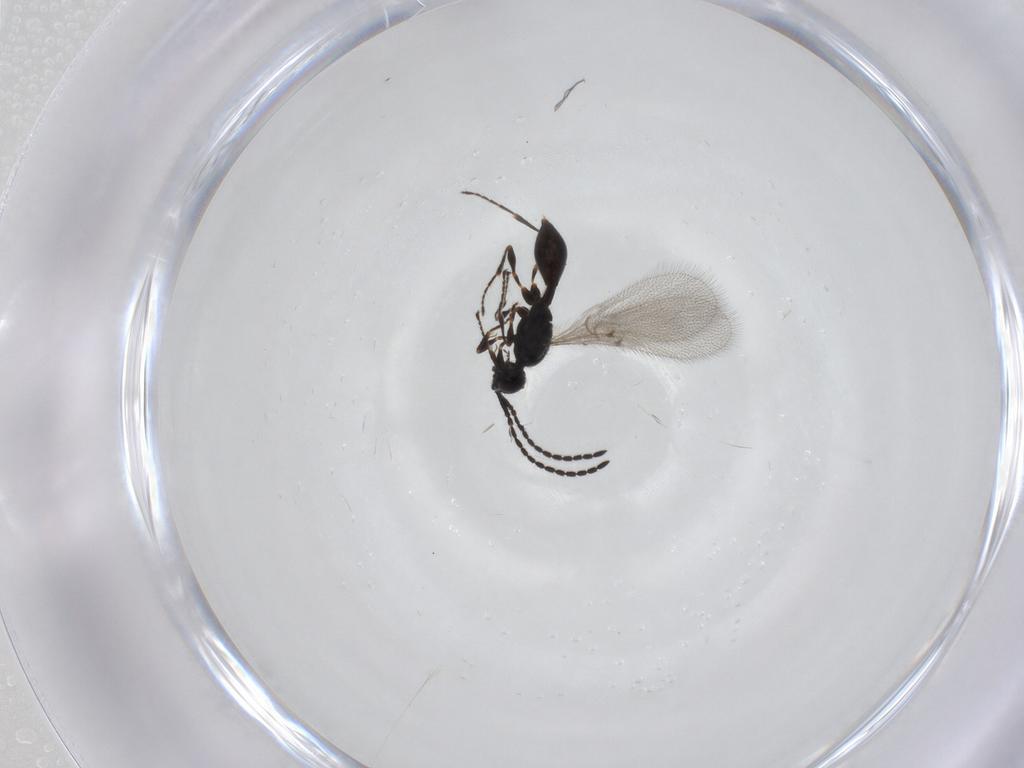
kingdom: Animalia
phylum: Arthropoda
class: Insecta
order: Hymenoptera
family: Diapriidae
